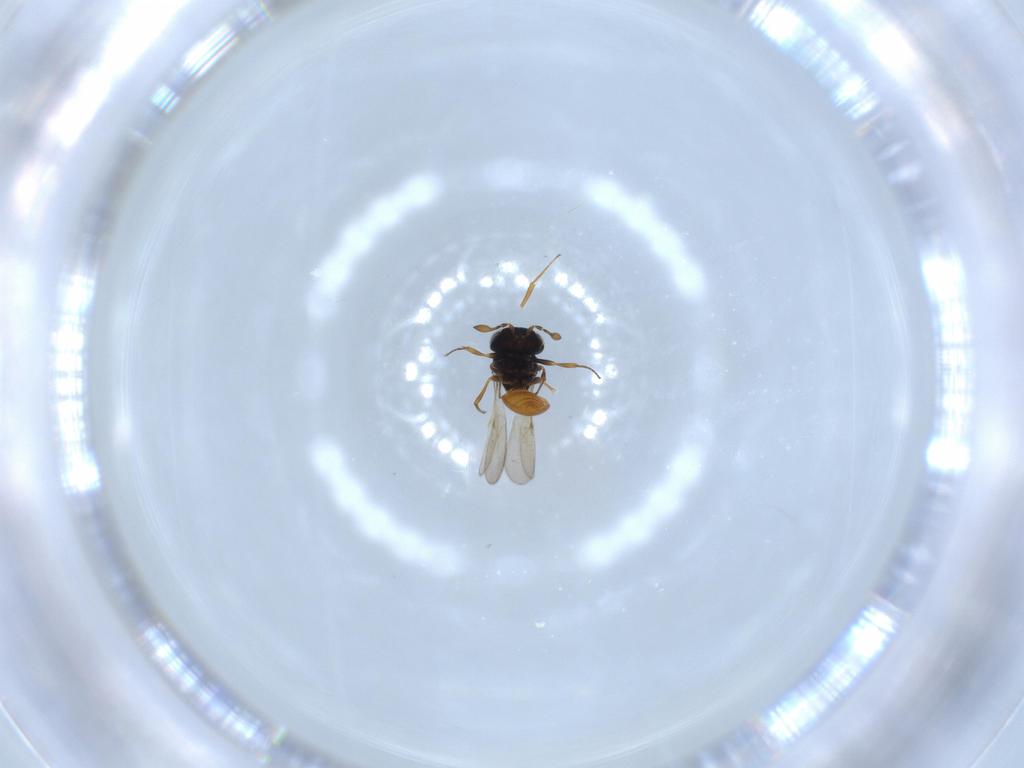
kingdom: Animalia
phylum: Arthropoda
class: Insecta
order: Hymenoptera
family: Scelionidae
